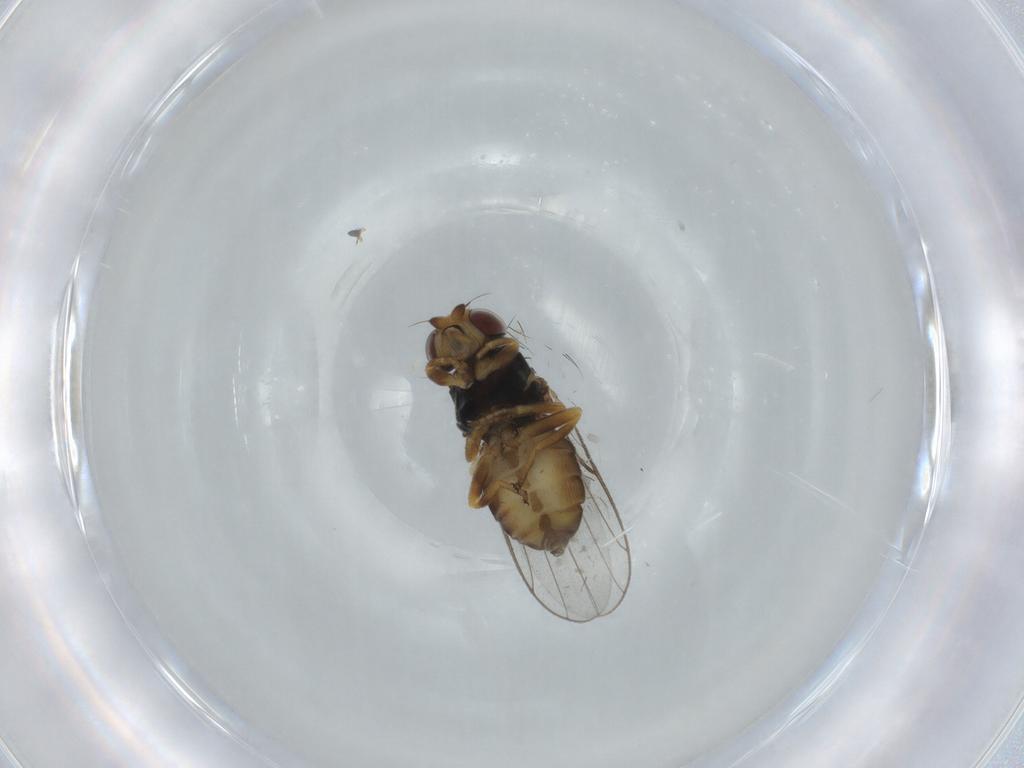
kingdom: Animalia
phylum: Arthropoda
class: Insecta
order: Diptera
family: Chloropidae
